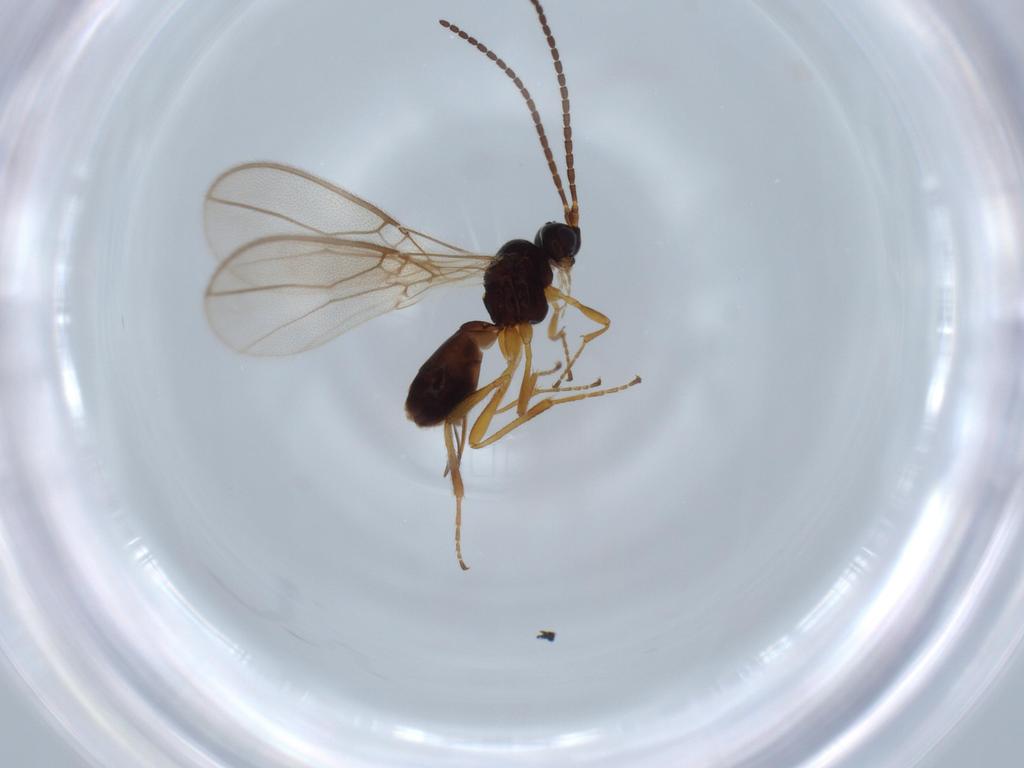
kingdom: Animalia
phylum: Arthropoda
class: Insecta
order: Hymenoptera
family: Braconidae
